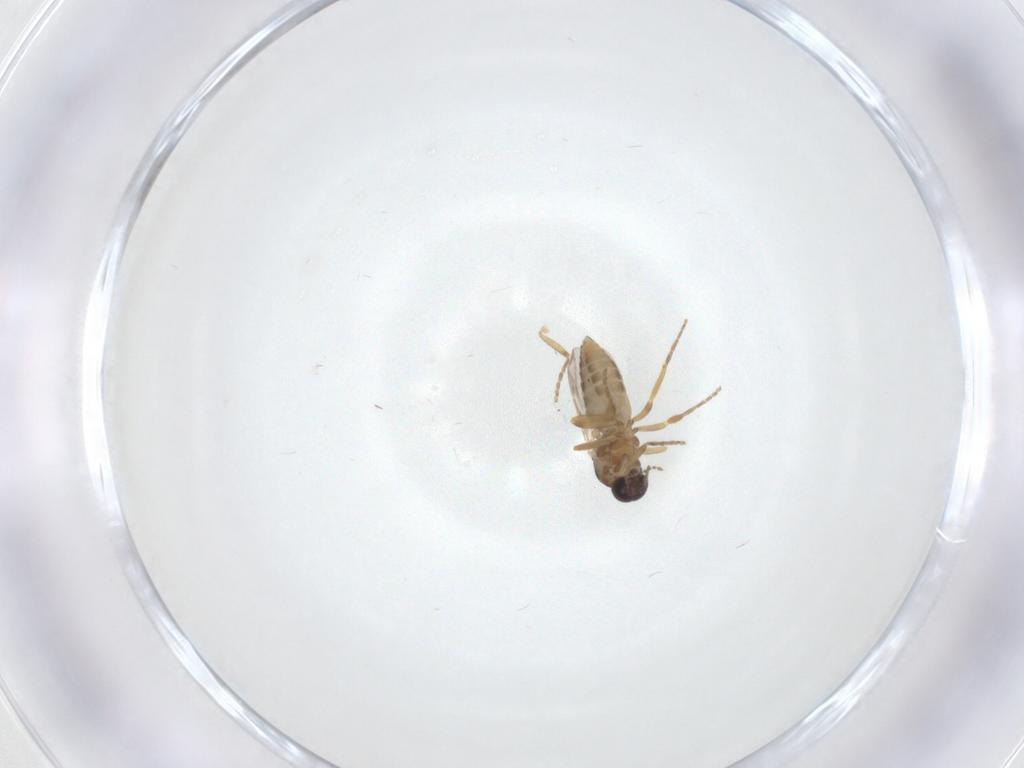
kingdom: Animalia
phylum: Arthropoda
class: Insecta
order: Diptera
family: Ceratopogonidae
